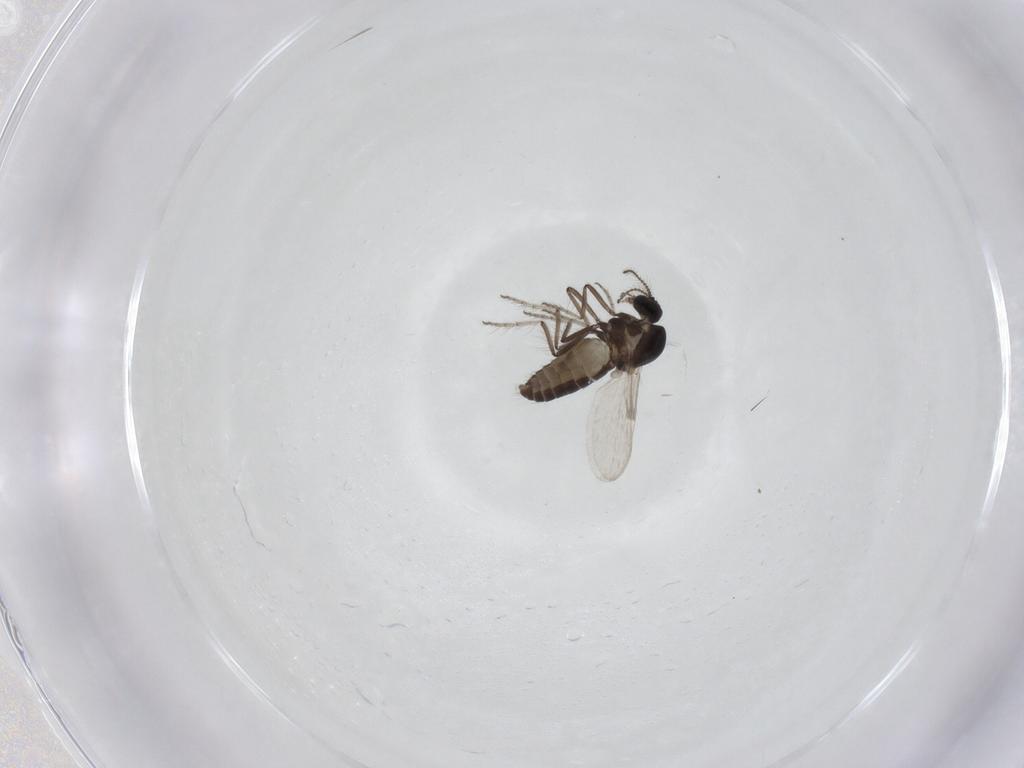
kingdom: Animalia
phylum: Arthropoda
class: Insecta
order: Diptera
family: Ceratopogonidae
